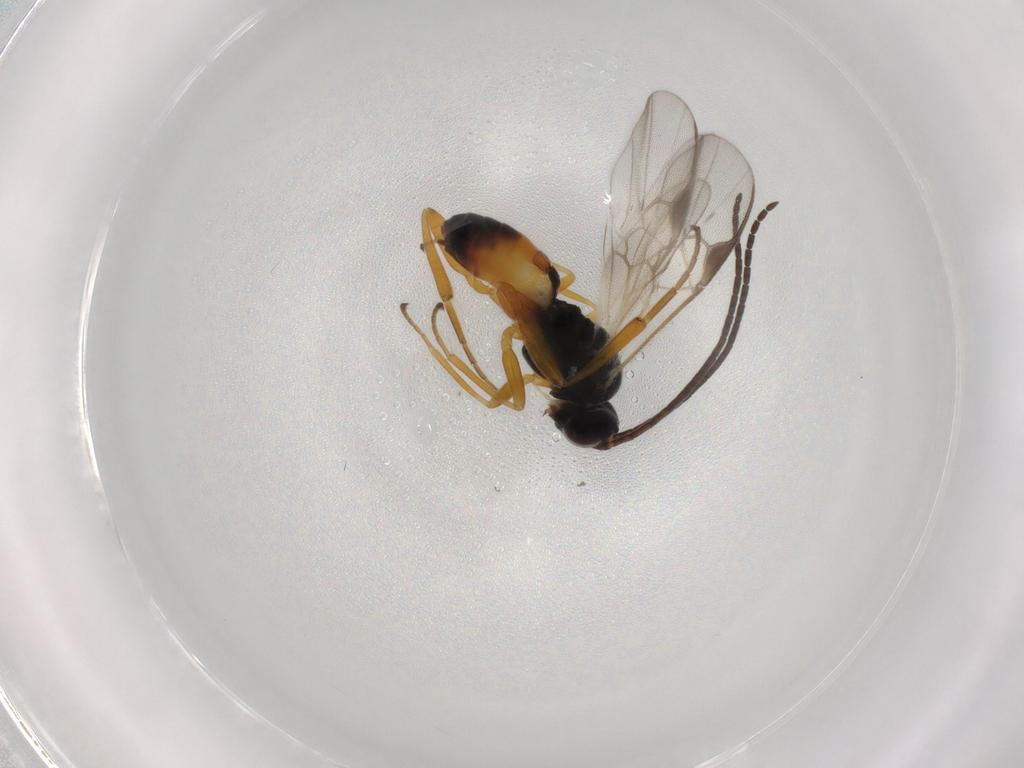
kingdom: Animalia
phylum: Arthropoda
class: Insecta
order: Hymenoptera
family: Braconidae
